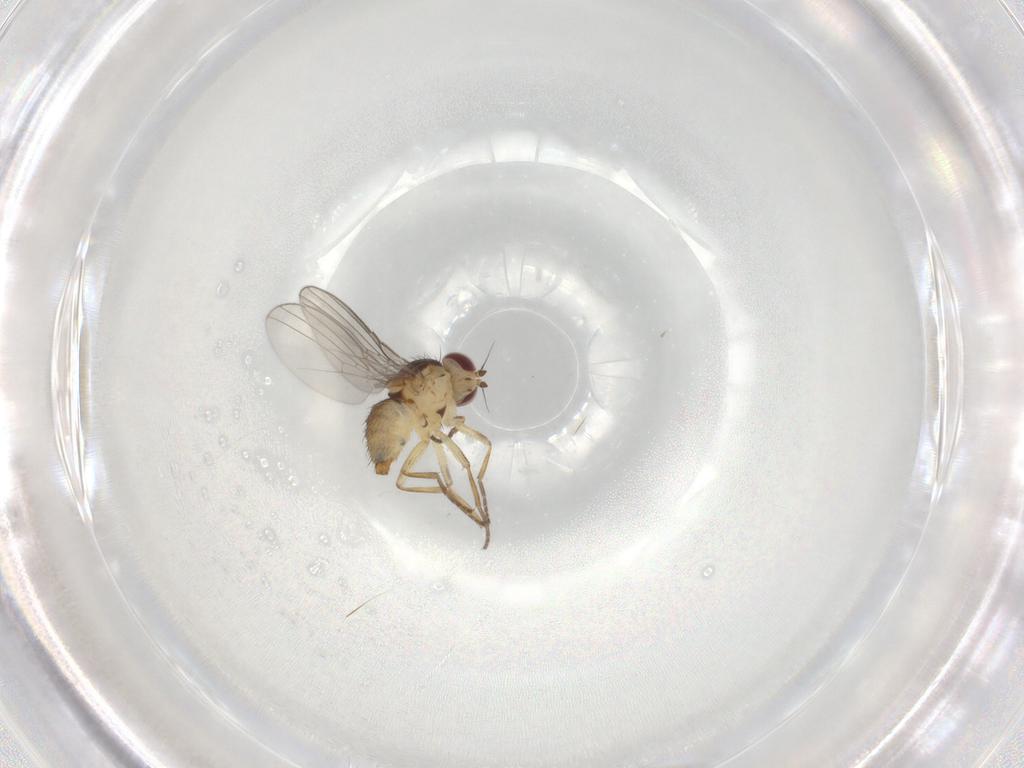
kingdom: Animalia
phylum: Arthropoda
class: Insecta
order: Diptera
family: Agromyzidae
